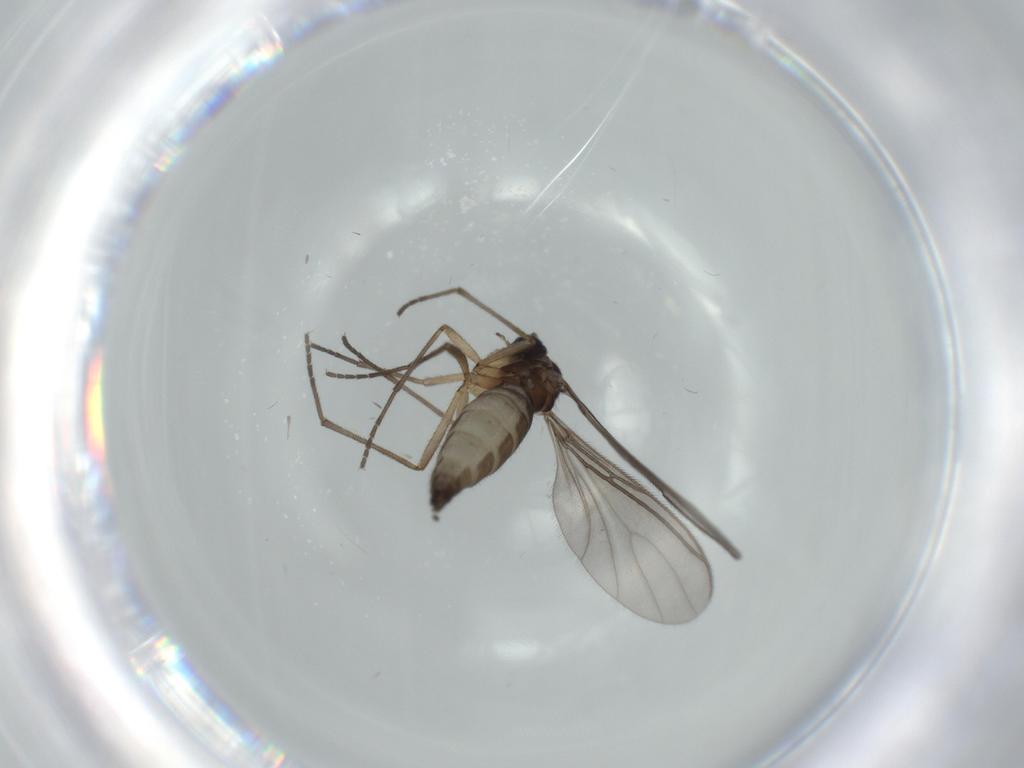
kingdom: Animalia
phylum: Arthropoda
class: Insecta
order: Diptera
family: Sciaridae
